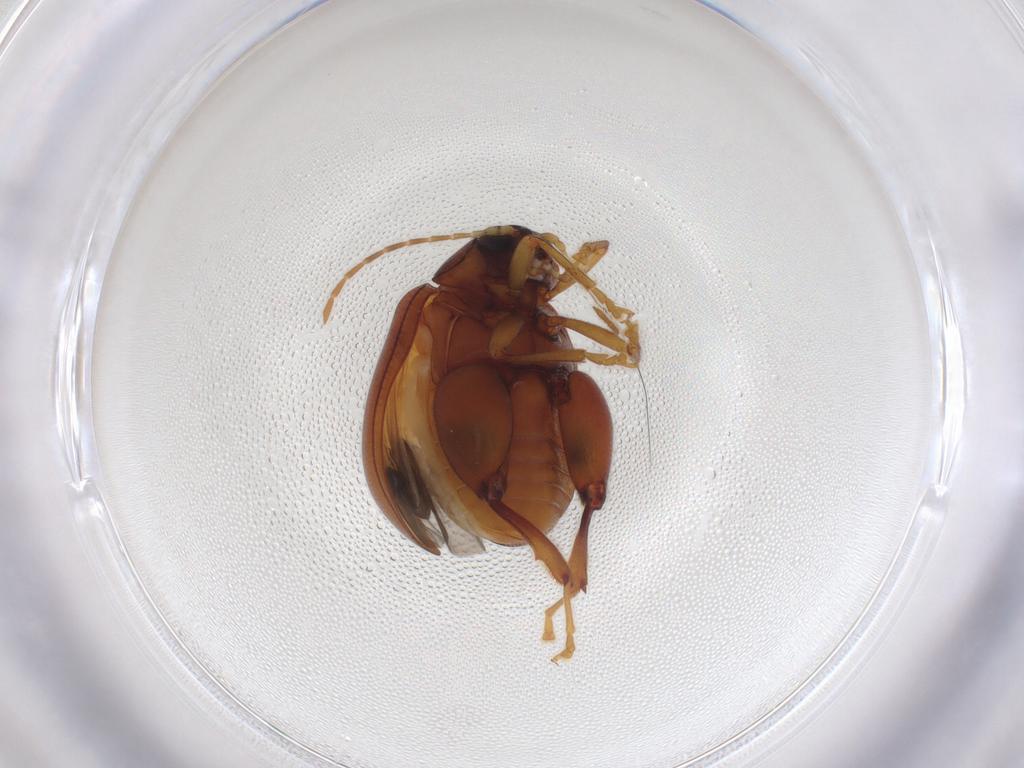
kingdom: Animalia
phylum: Arthropoda
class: Insecta
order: Coleoptera
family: Chrysomelidae
